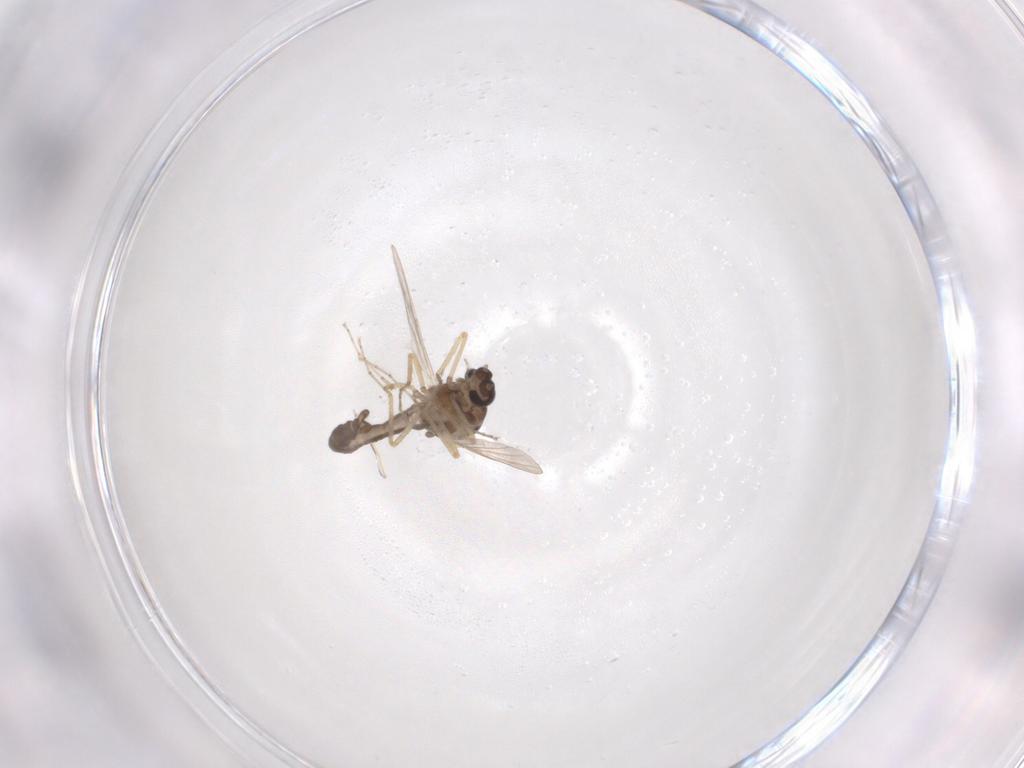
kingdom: Animalia
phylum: Arthropoda
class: Insecta
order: Diptera
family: Ceratopogonidae
